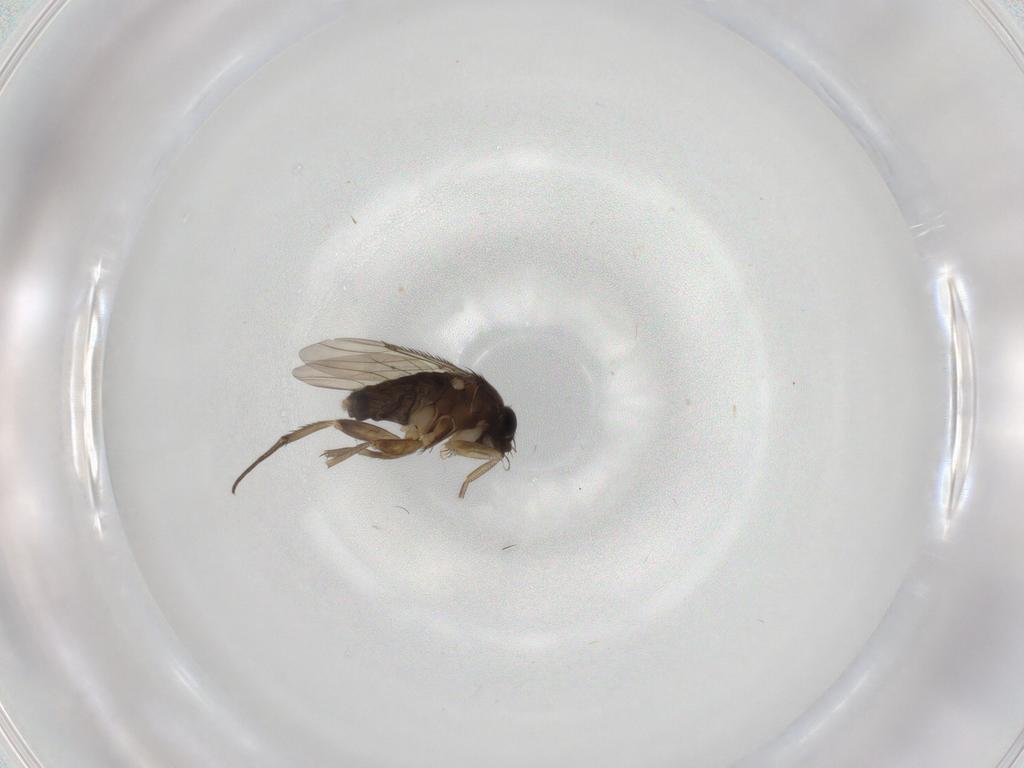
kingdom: Animalia
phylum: Arthropoda
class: Insecta
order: Diptera
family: Phoridae
